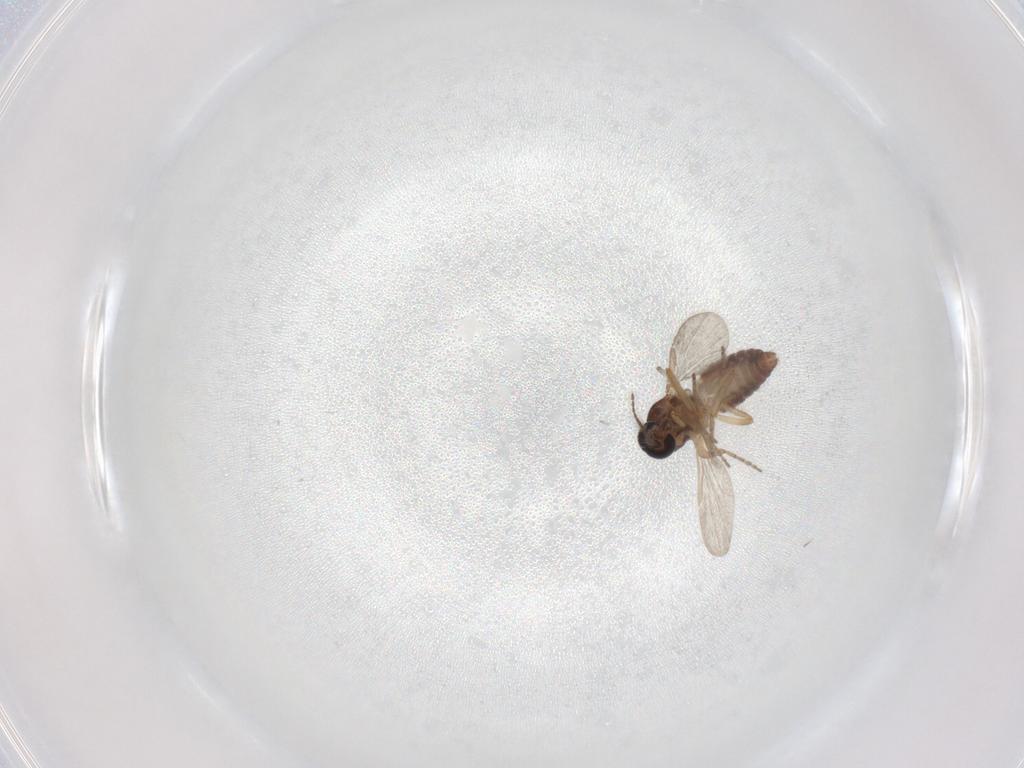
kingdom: Animalia
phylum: Arthropoda
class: Insecta
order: Diptera
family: Ceratopogonidae
